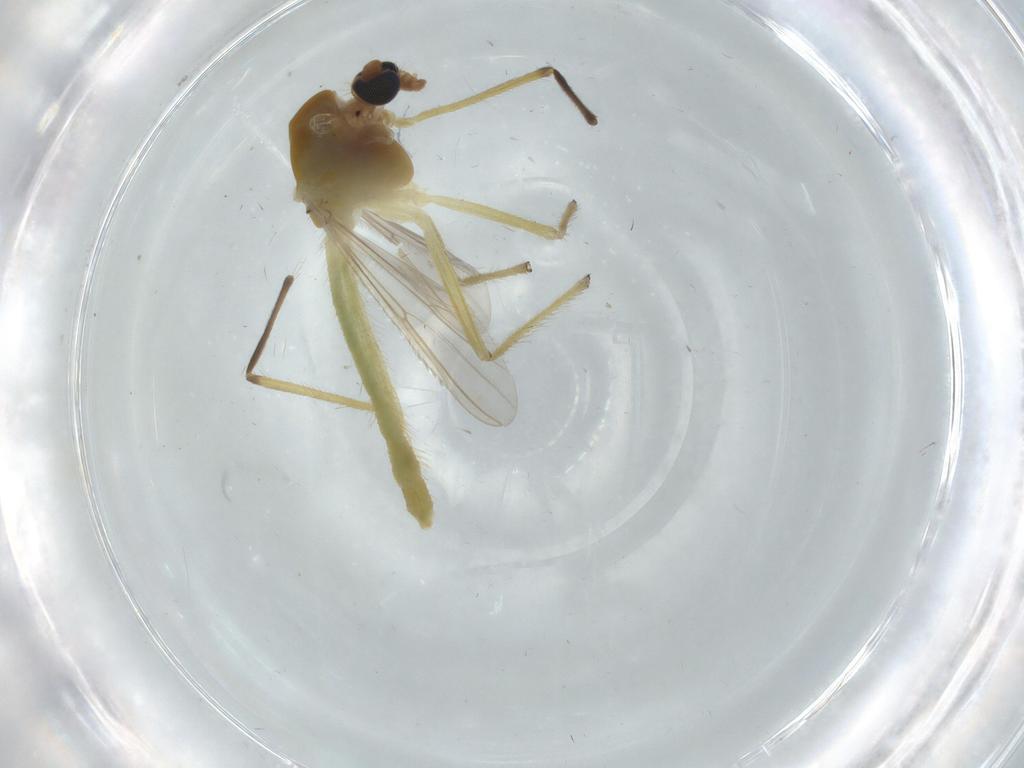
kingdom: Animalia
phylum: Arthropoda
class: Insecta
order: Diptera
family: Chironomidae
